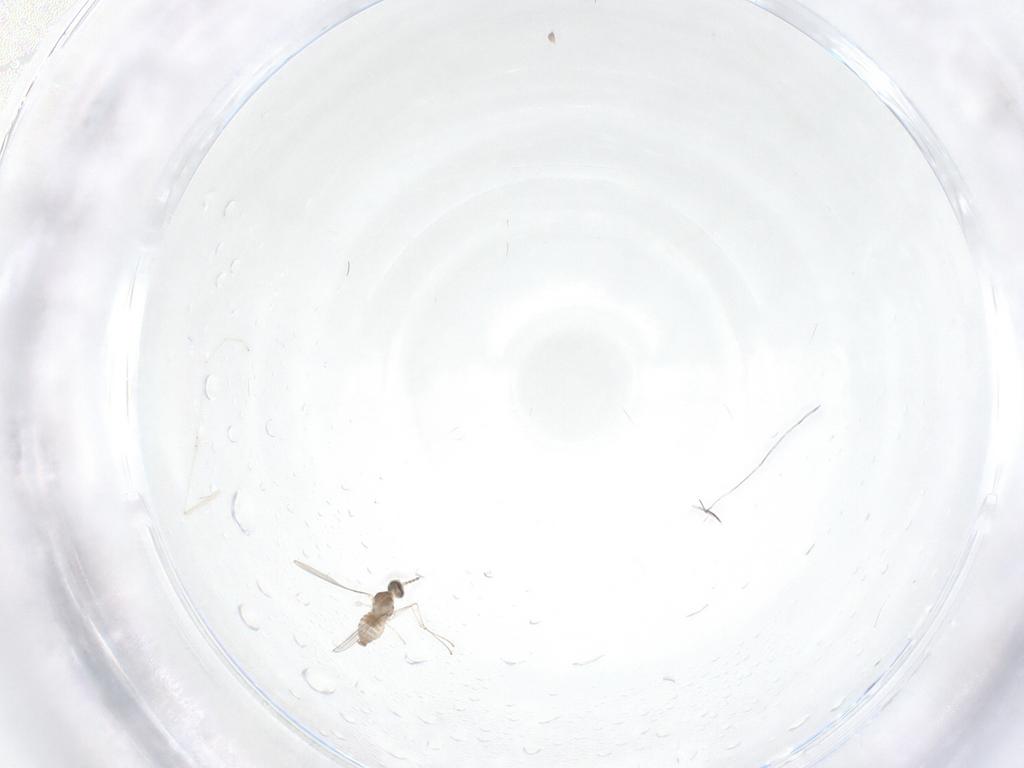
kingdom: Animalia
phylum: Arthropoda
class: Insecta
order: Diptera
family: Cecidomyiidae
